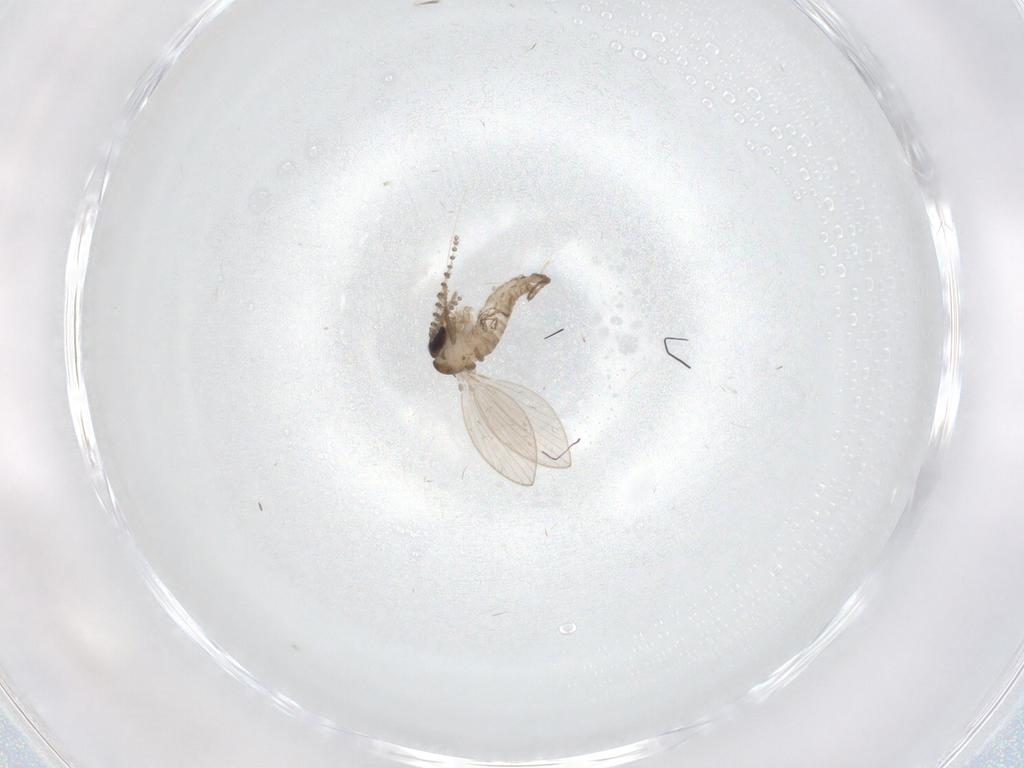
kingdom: Animalia
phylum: Arthropoda
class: Insecta
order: Diptera
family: Psychodidae
